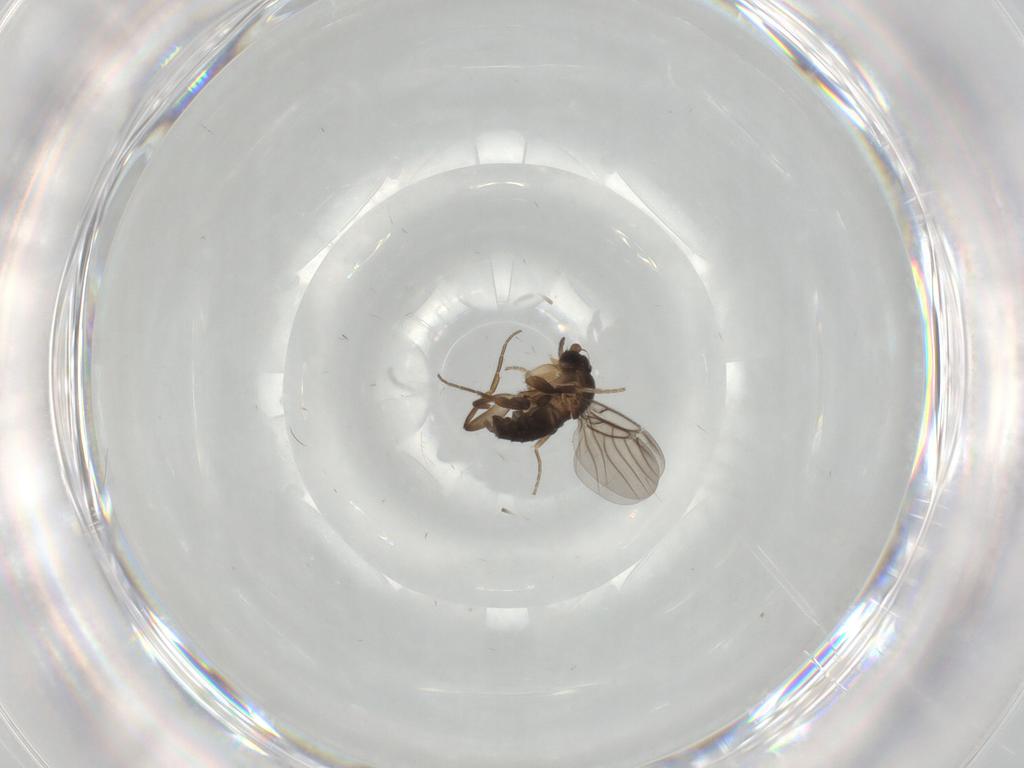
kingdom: Animalia
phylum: Arthropoda
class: Insecta
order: Diptera
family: Phoridae
